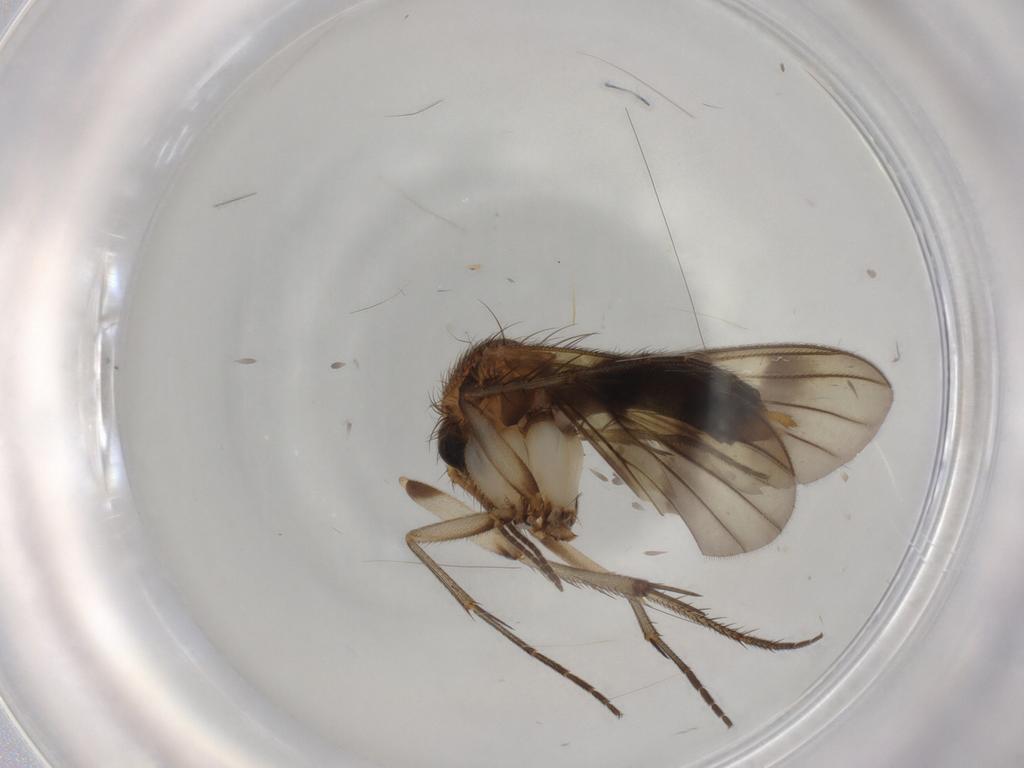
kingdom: Animalia
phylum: Arthropoda
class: Insecta
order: Diptera
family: Sciaridae
